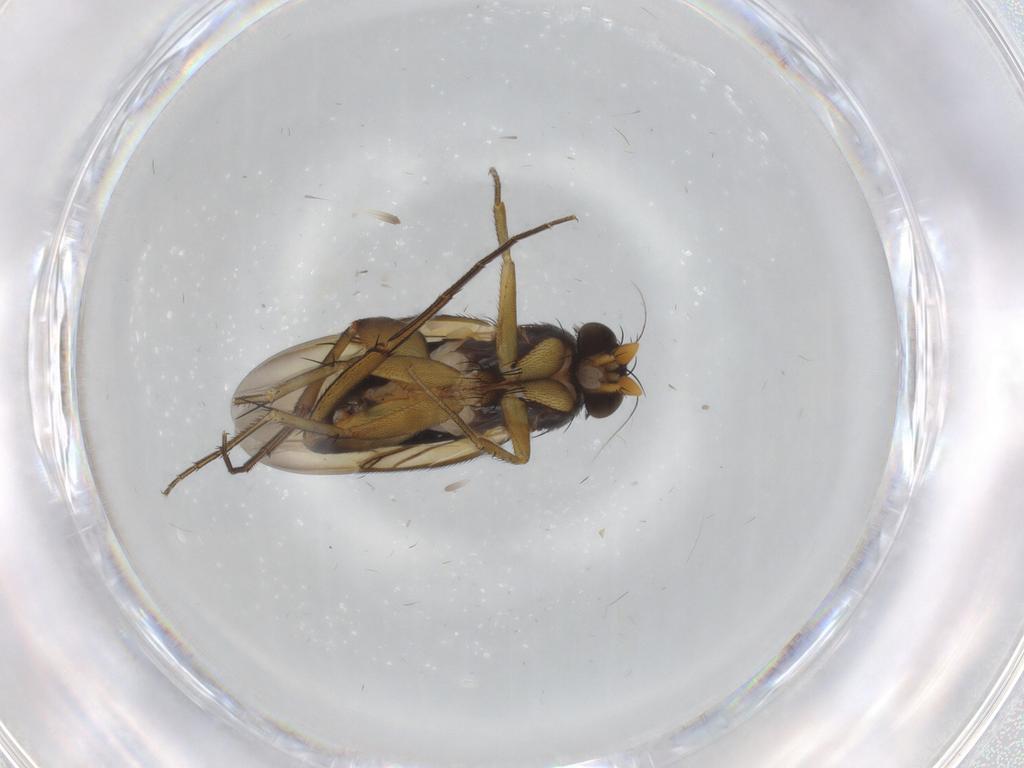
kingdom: Animalia
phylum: Arthropoda
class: Insecta
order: Diptera
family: Phoridae
